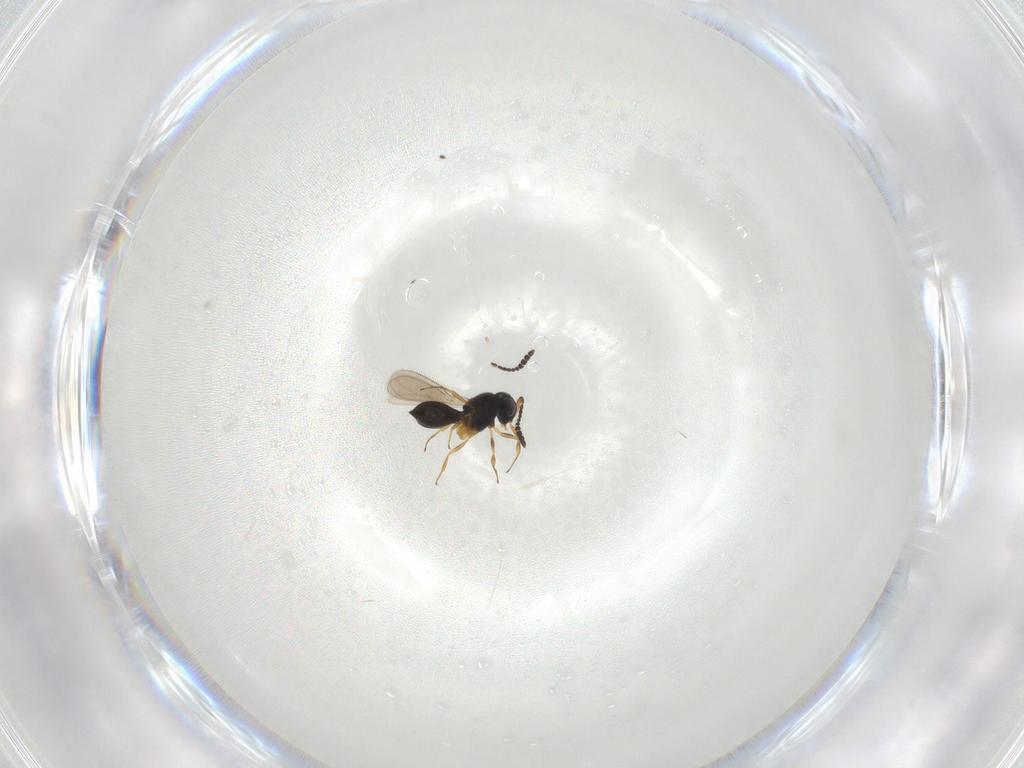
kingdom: Animalia
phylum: Arthropoda
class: Insecta
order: Hymenoptera
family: Scelionidae
